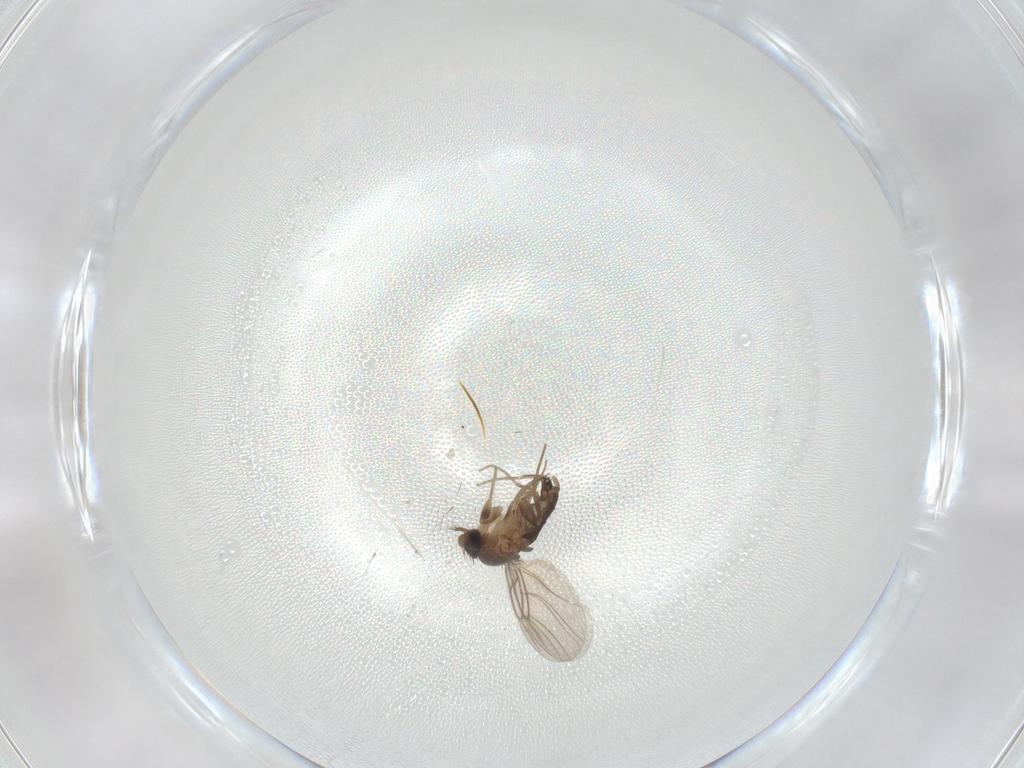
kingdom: Animalia
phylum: Arthropoda
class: Insecta
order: Diptera
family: Phoridae
